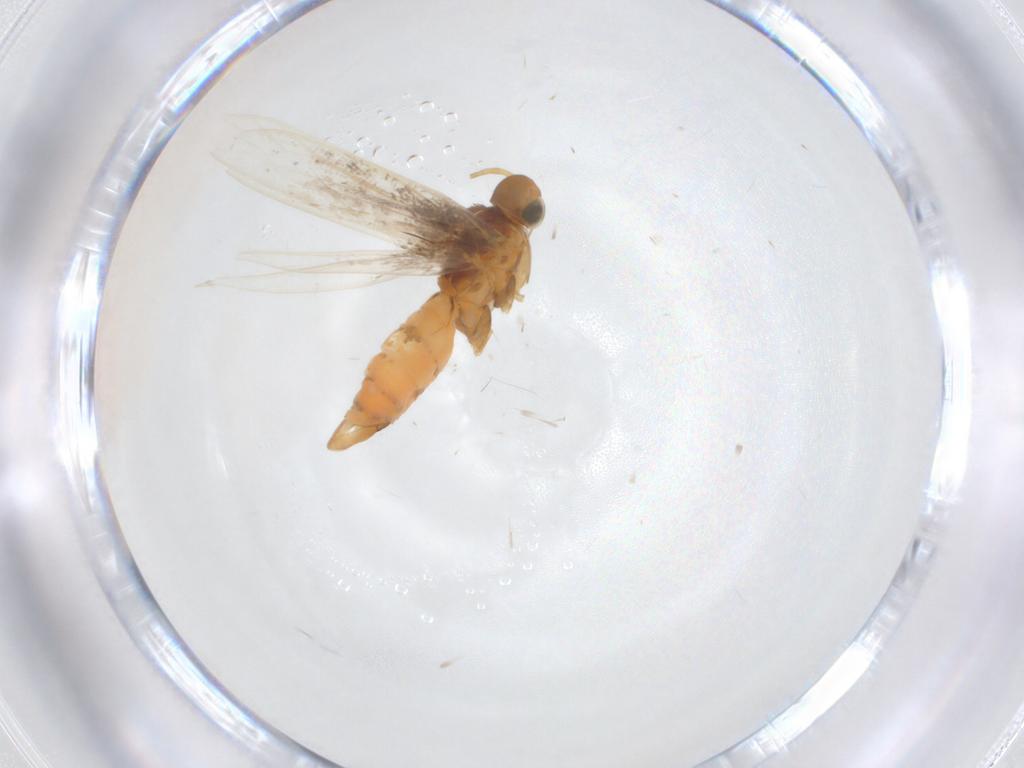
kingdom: Animalia
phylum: Arthropoda
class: Insecta
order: Lepidoptera
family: Gracillariidae
